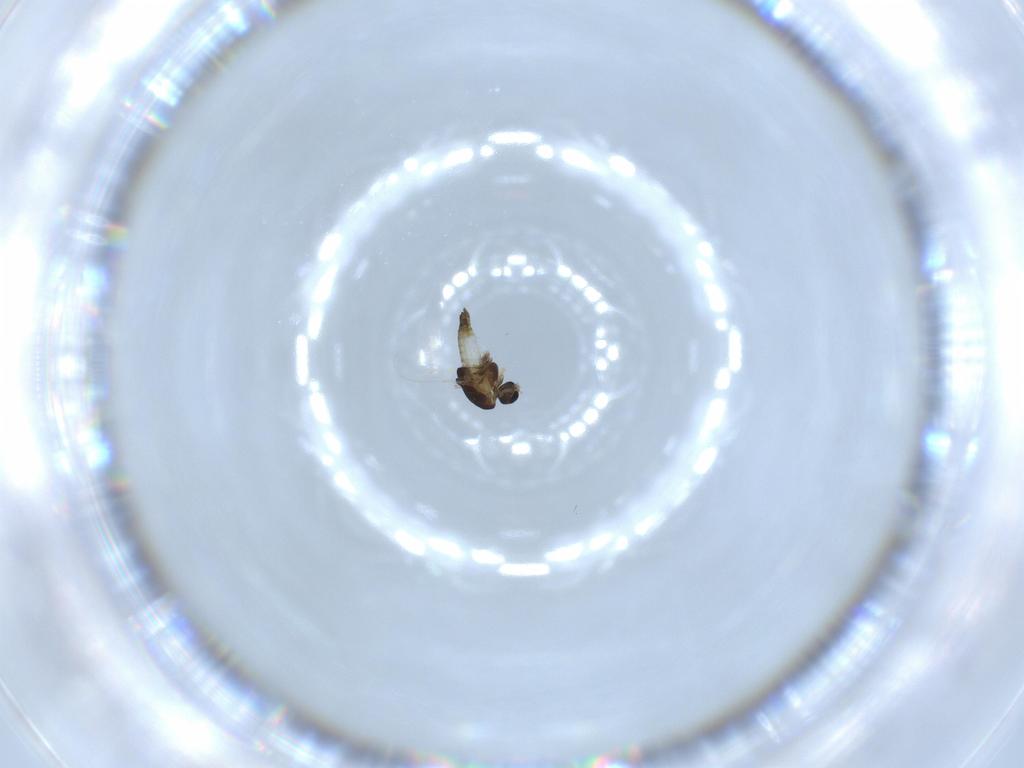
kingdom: Animalia
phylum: Arthropoda
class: Insecta
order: Diptera
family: Chironomidae
